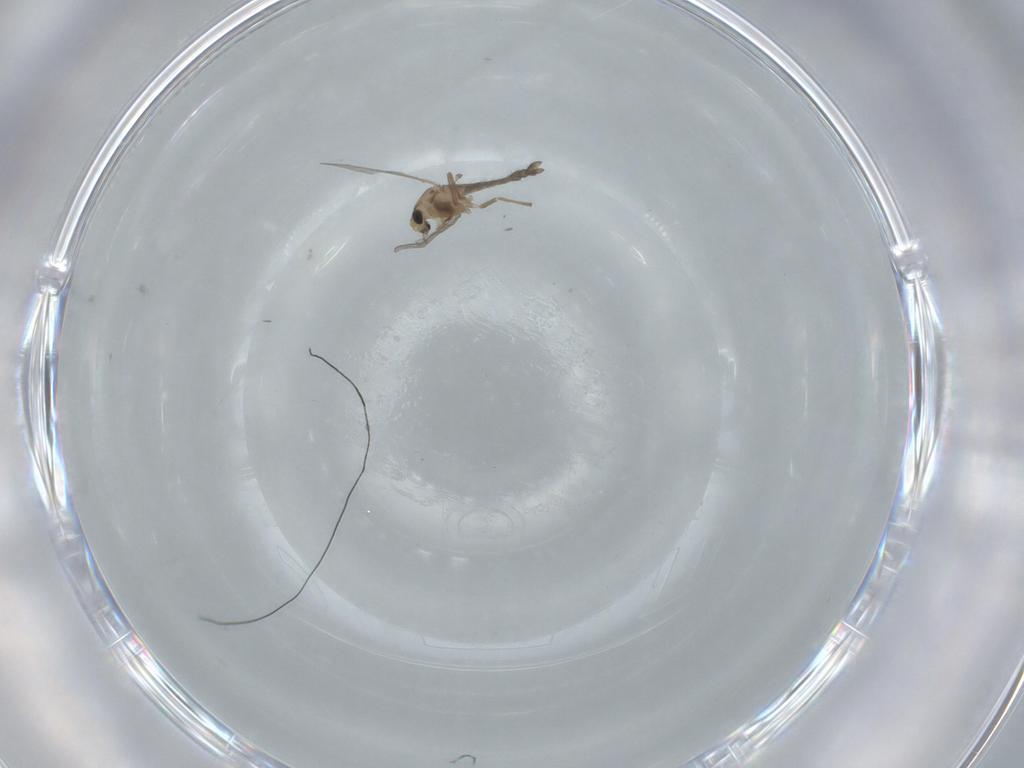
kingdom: Animalia
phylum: Arthropoda
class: Insecta
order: Diptera
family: Chironomidae
